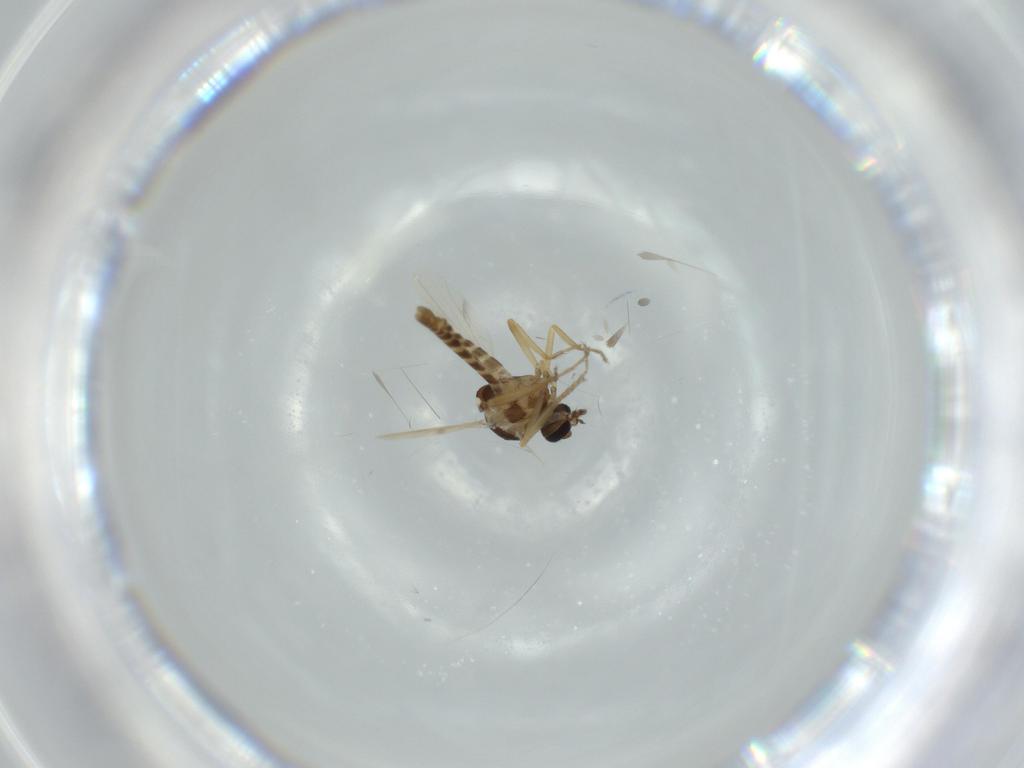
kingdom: Animalia
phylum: Arthropoda
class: Insecta
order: Diptera
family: Ceratopogonidae
